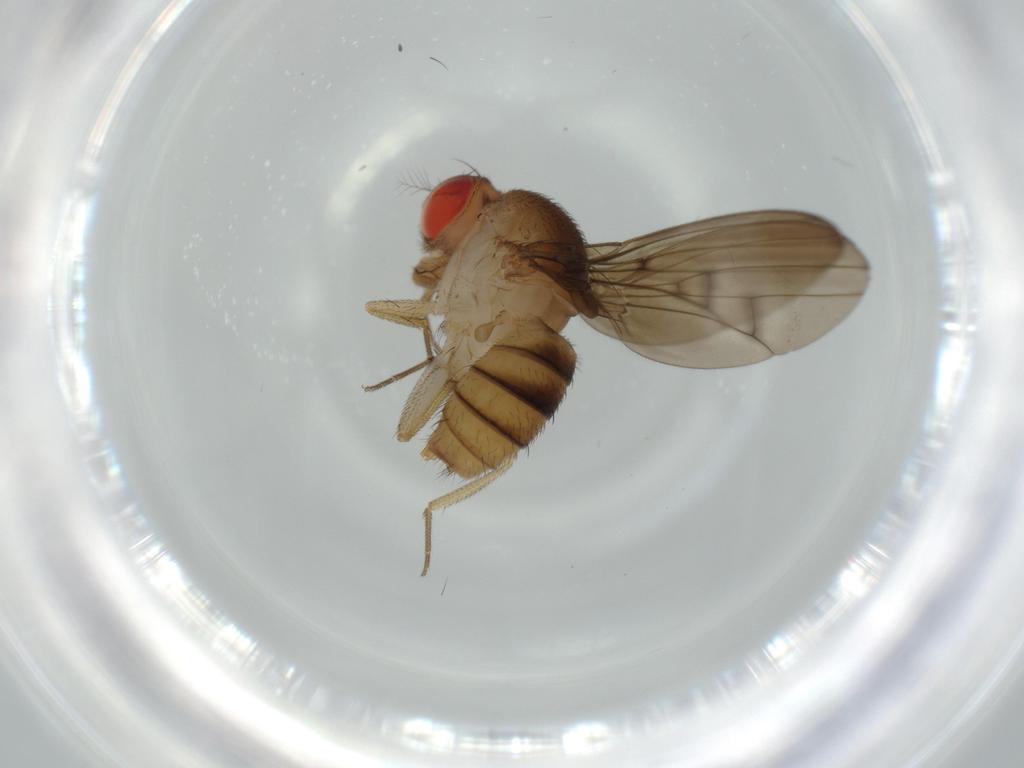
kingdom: Animalia
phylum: Arthropoda
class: Insecta
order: Diptera
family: Drosophilidae
